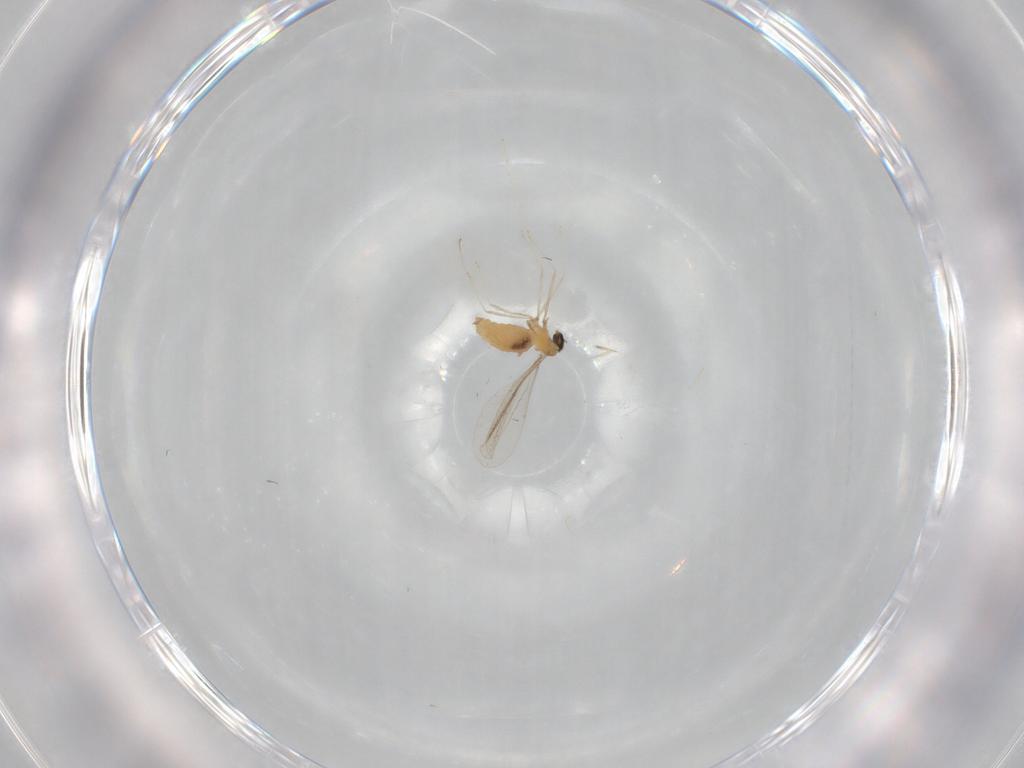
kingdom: Animalia
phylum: Arthropoda
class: Insecta
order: Diptera
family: Cecidomyiidae
